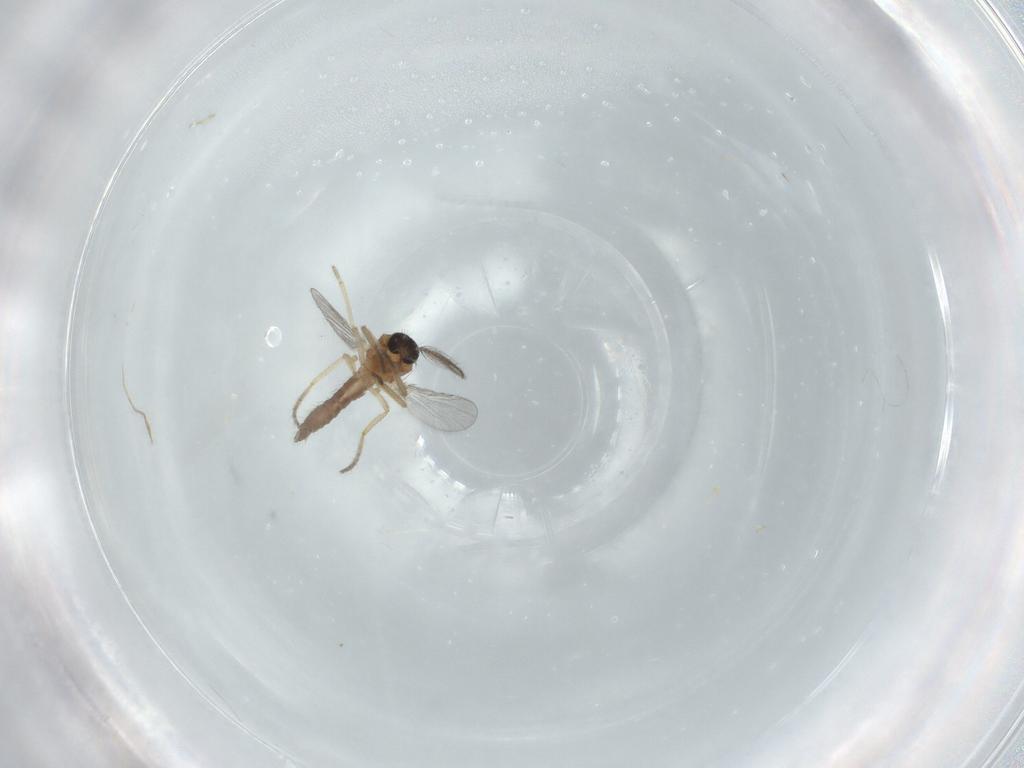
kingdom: Animalia
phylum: Arthropoda
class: Insecta
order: Diptera
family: Ceratopogonidae
